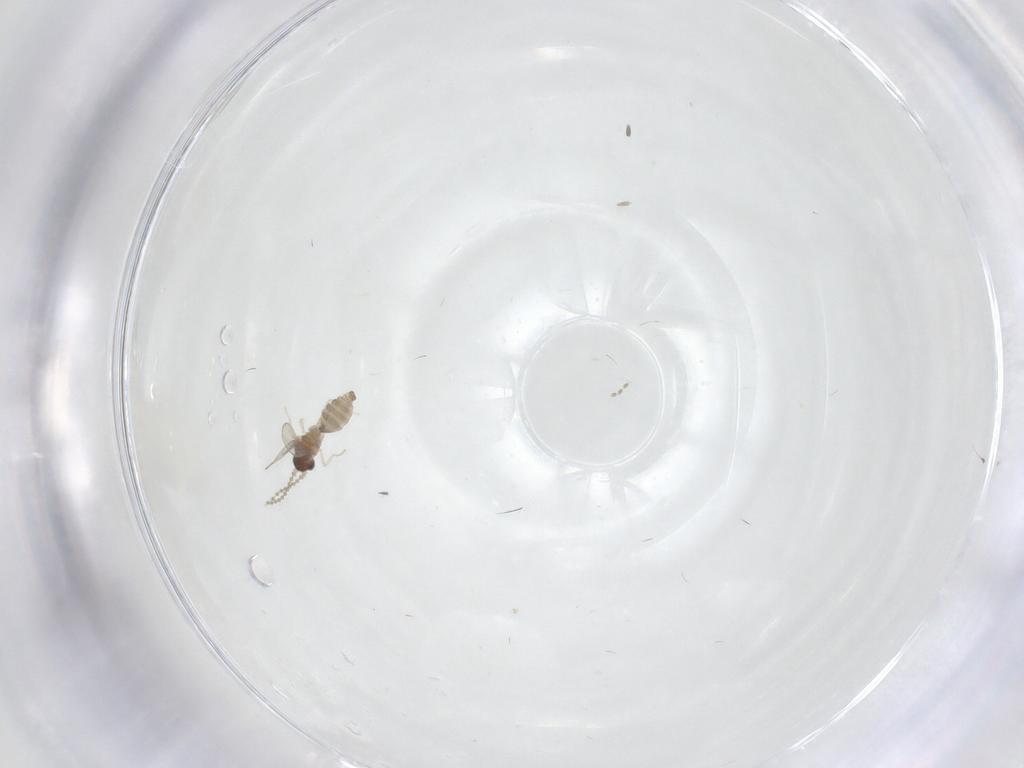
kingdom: Animalia
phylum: Arthropoda
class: Insecta
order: Diptera
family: Cecidomyiidae
